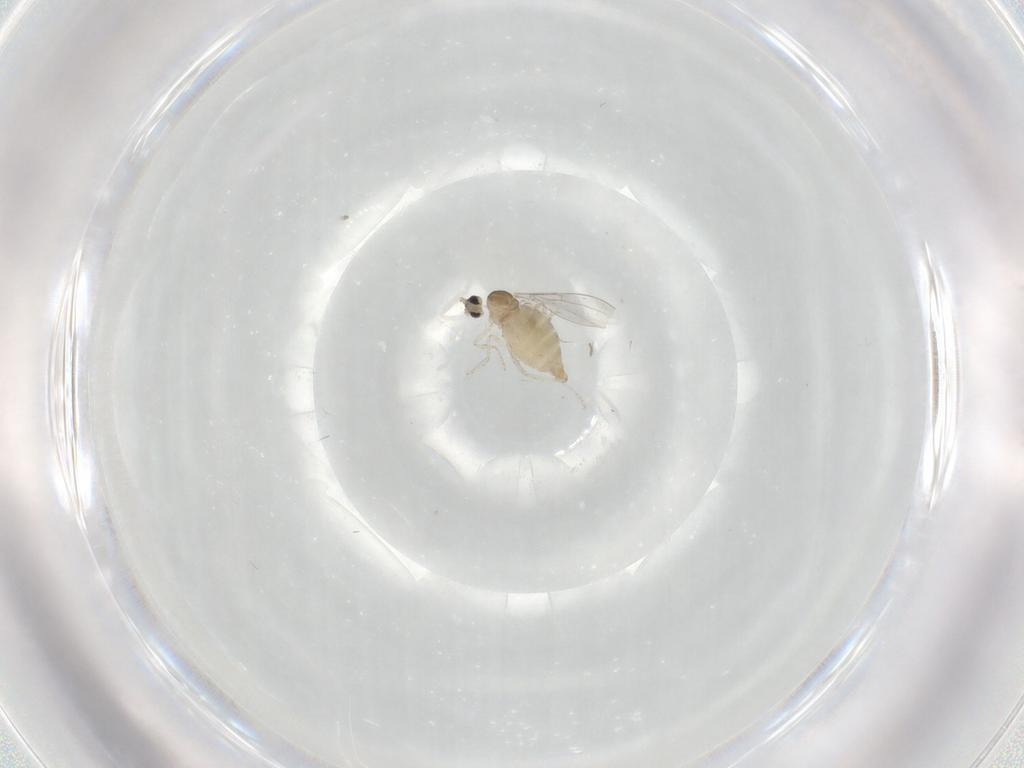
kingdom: Animalia
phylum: Arthropoda
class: Insecta
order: Diptera
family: Cecidomyiidae
